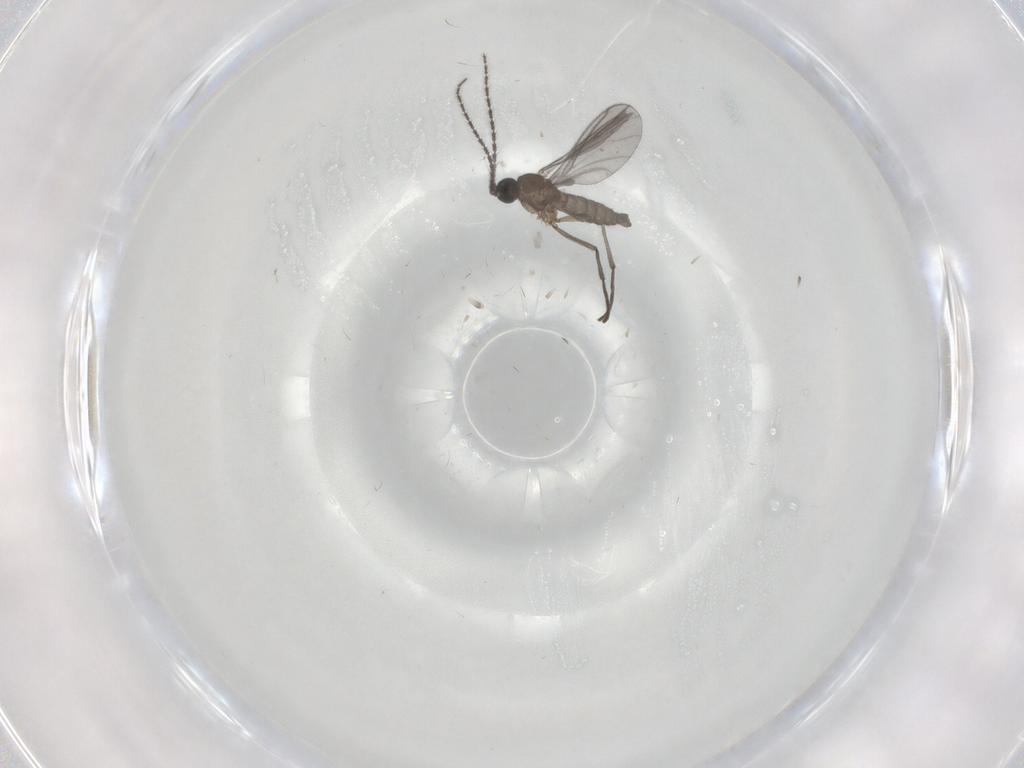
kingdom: Animalia
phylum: Arthropoda
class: Insecta
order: Diptera
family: Sciaridae
